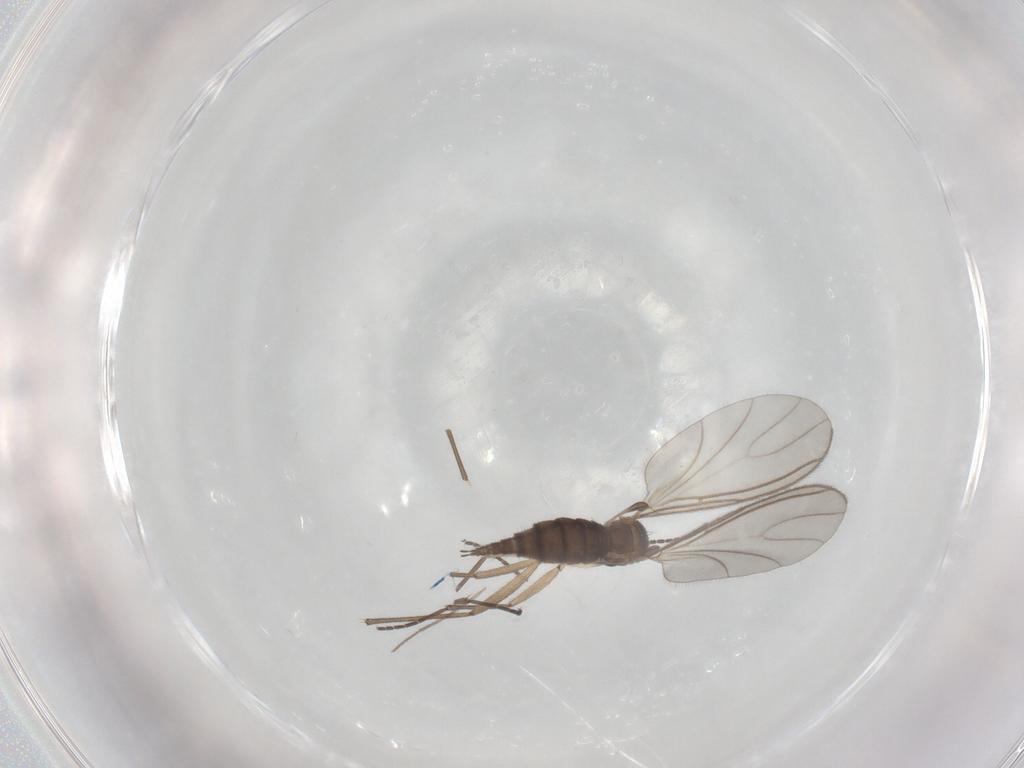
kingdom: Animalia
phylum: Arthropoda
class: Insecta
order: Diptera
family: Sciaridae
